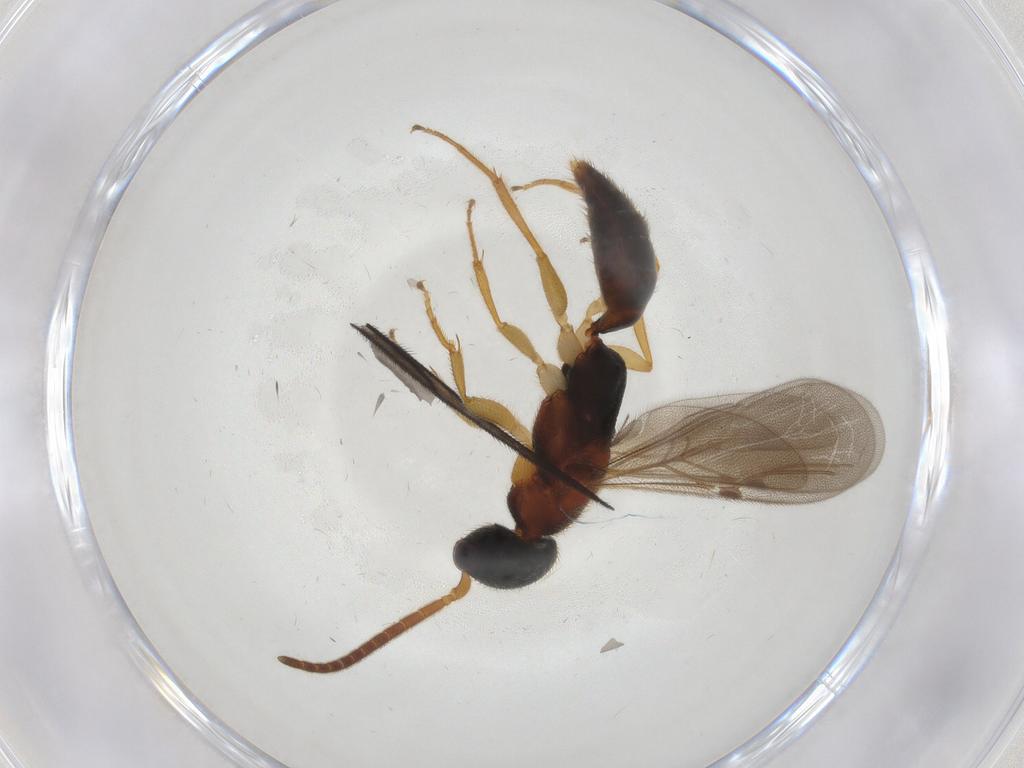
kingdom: Animalia
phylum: Arthropoda
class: Insecta
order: Hymenoptera
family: Bethylidae
